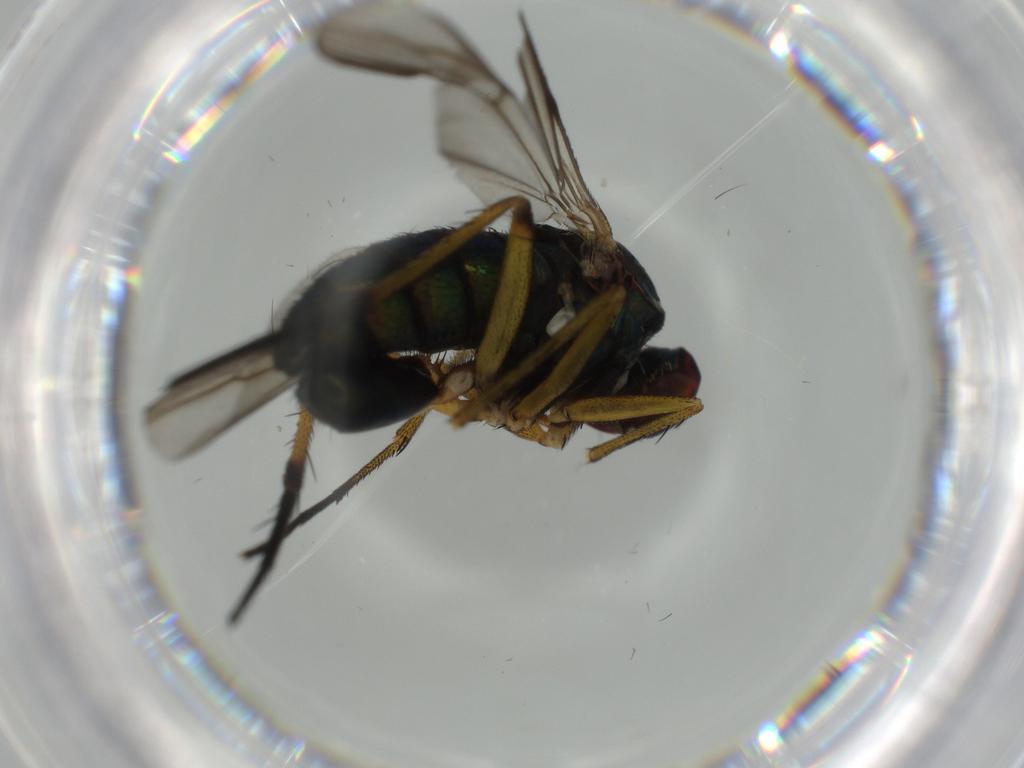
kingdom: Animalia
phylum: Arthropoda
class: Insecta
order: Diptera
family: Dolichopodidae
